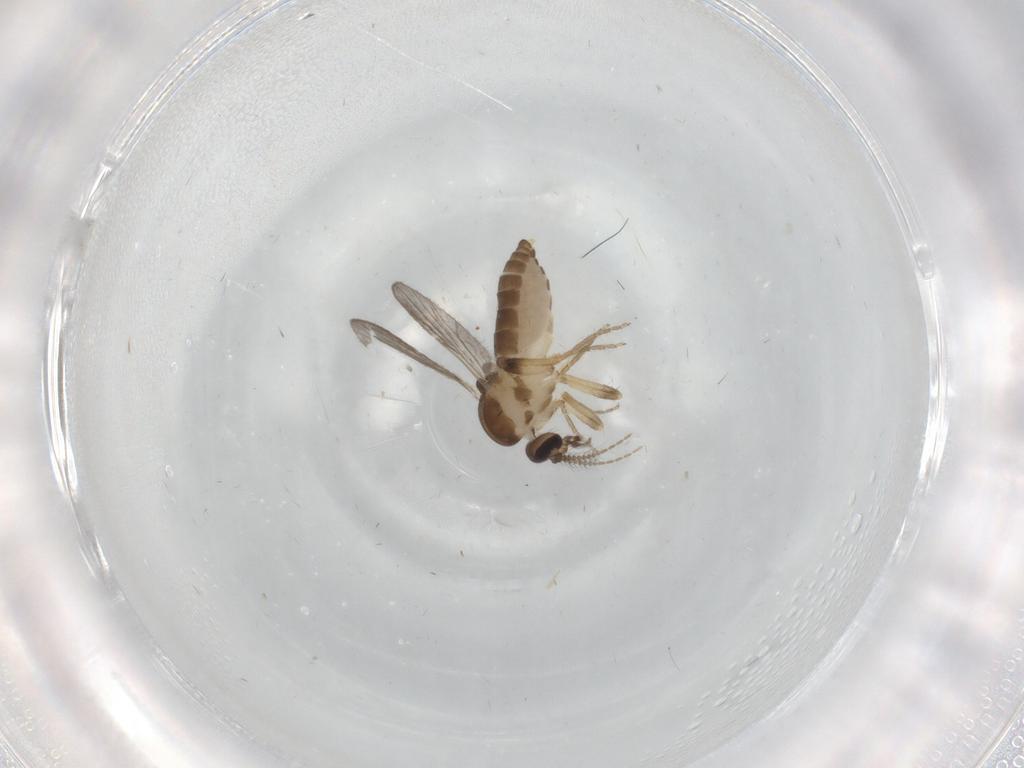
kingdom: Animalia
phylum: Arthropoda
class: Insecta
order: Diptera
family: Ceratopogonidae
